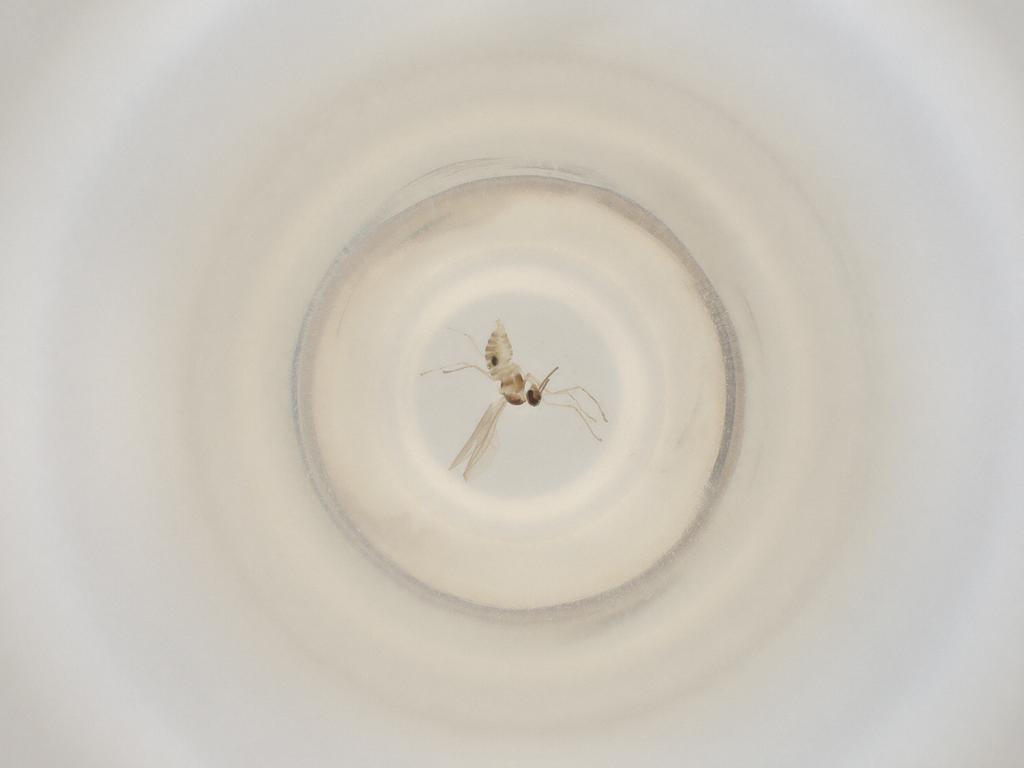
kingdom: Animalia
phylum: Arthropoda
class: Insecta
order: Diptera
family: Cecidomyiidae
